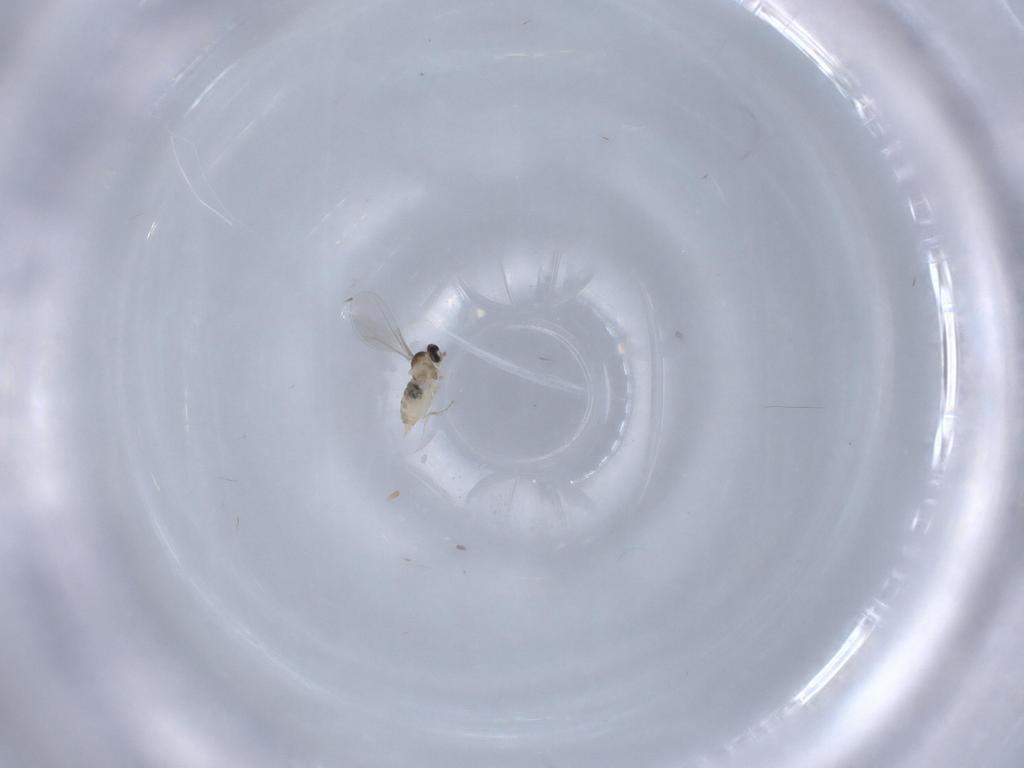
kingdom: Animalia
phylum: Arthropoda
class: Insecta
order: Diptera
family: Cecidomyiidae
